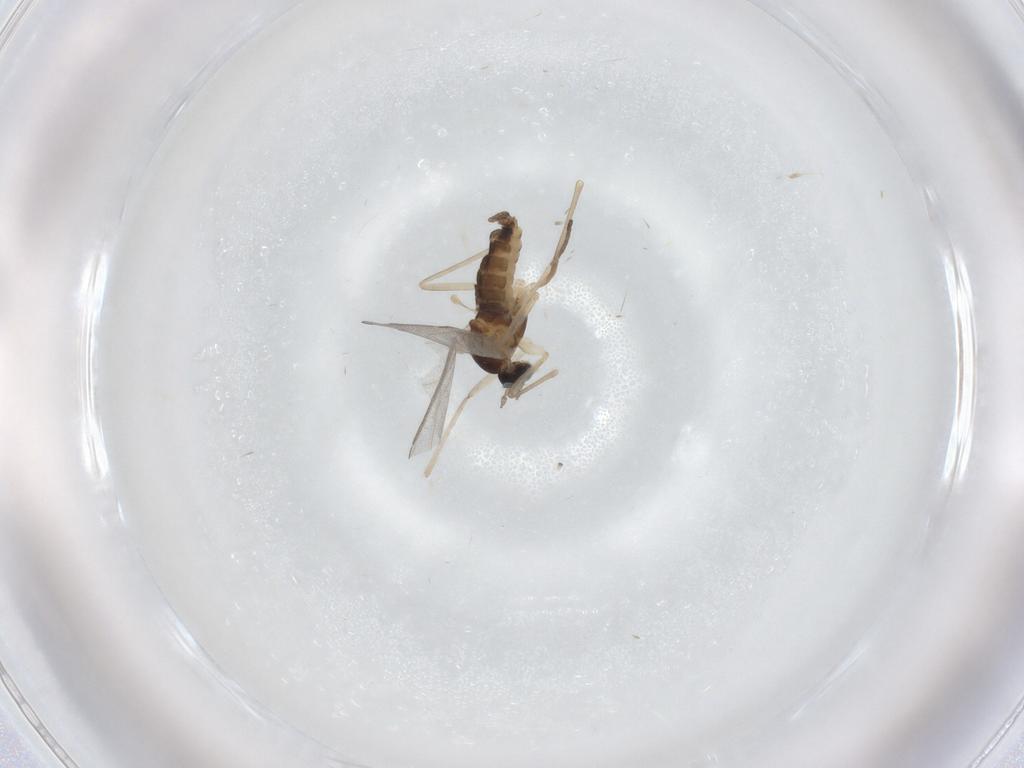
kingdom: Animalia
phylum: Arthropoda
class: Insecta
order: Diptera
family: Cecidomyiidae
